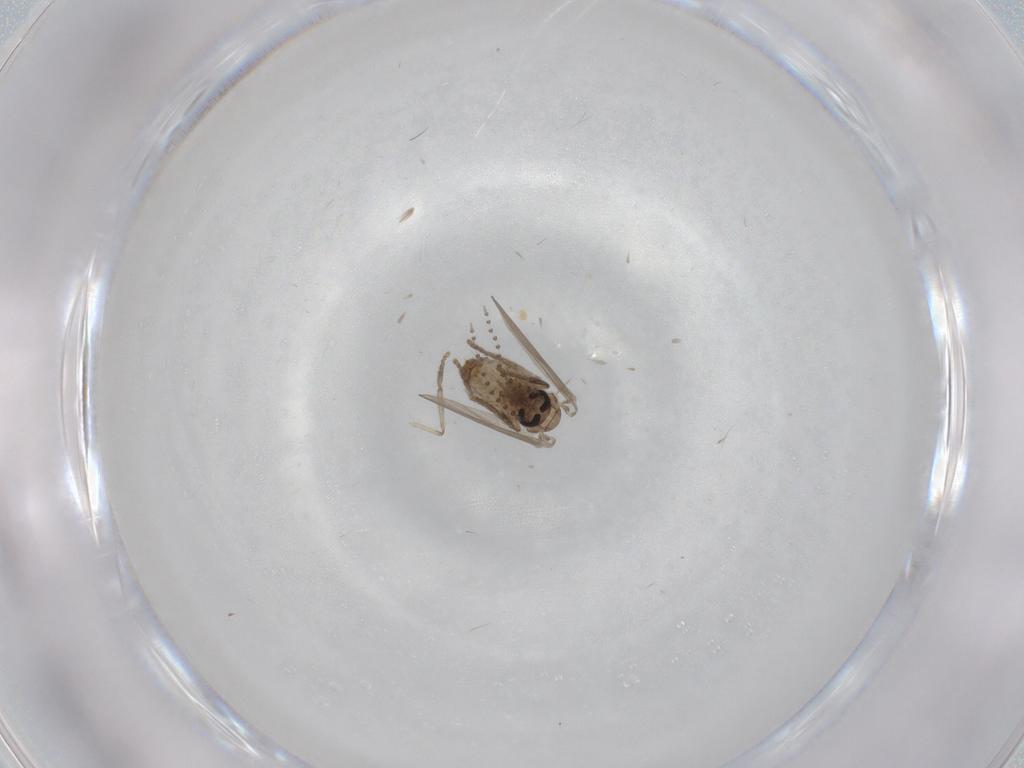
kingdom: Animalia
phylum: Arthropoda
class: Insecta
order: Diptera
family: Psychodidae
